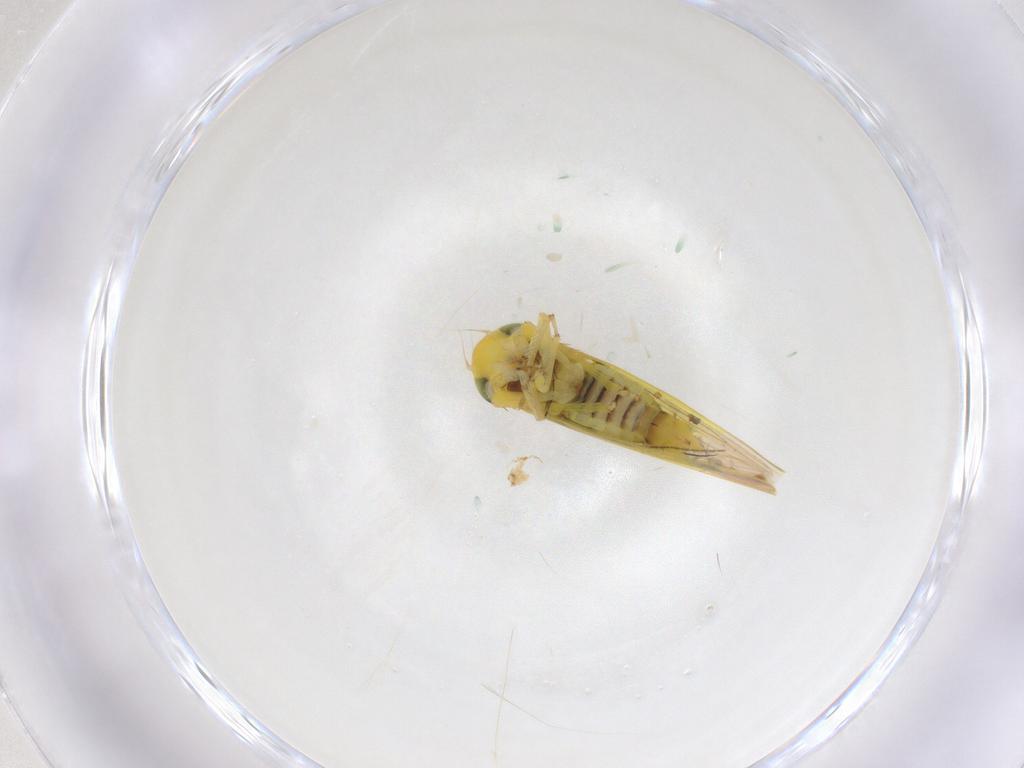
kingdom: Animalia
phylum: Arthropoda
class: Insecta
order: Hemiptera
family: Cicadellidae
